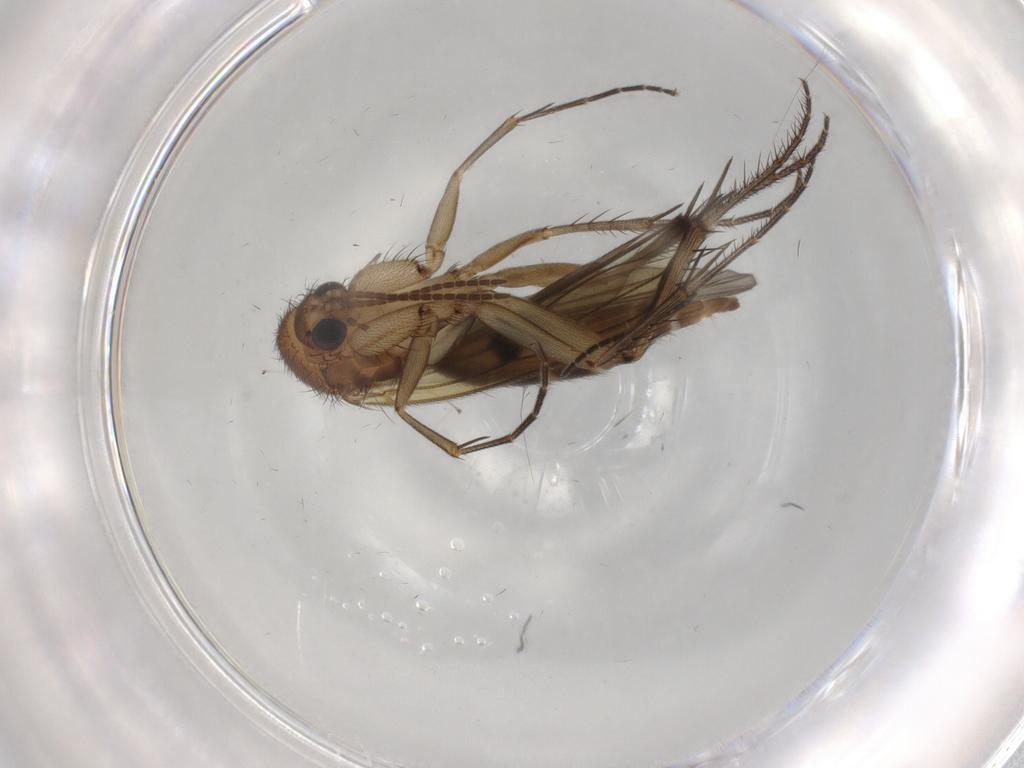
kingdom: Animalia
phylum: Arthropoda
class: Insecta
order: Diptera
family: Mycetophilidae
